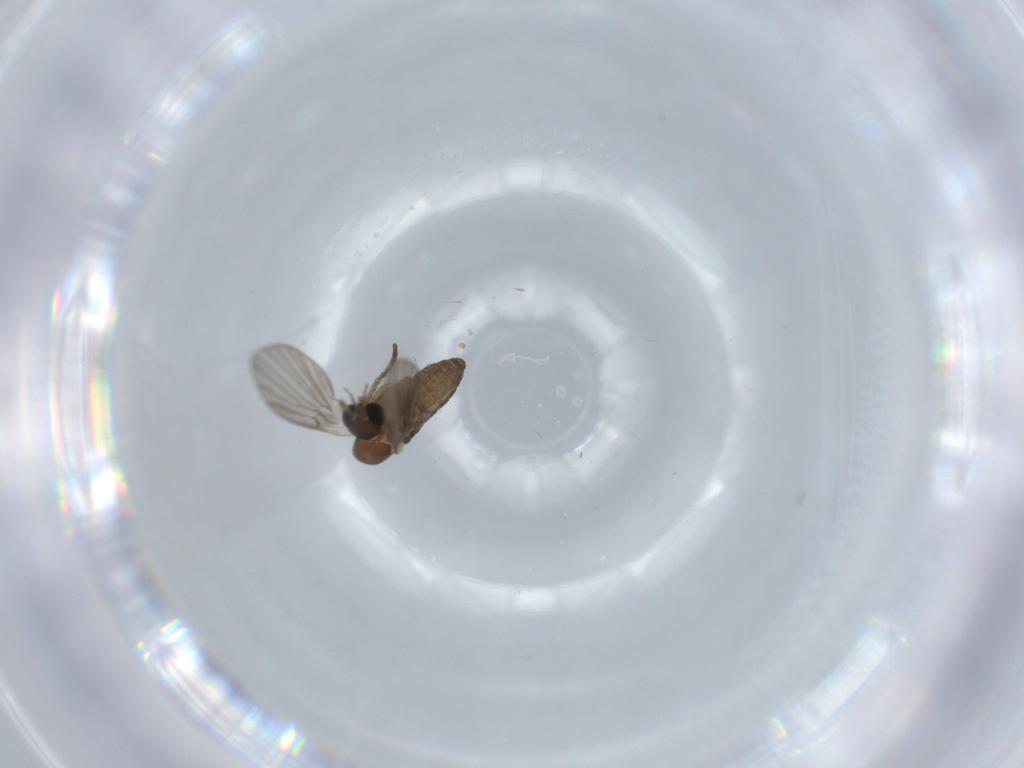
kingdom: Animalia
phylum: Arthropoda
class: Insecta
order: Diptera
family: Psychodidae
